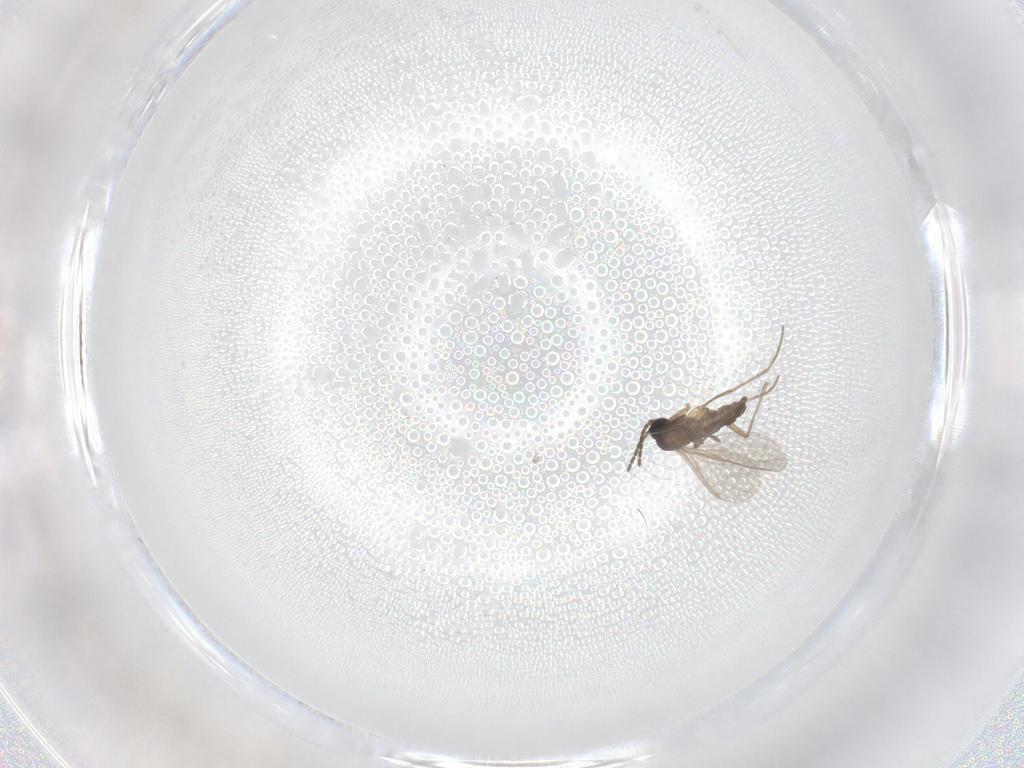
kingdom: Animalia
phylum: Arthropoda
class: Insecta
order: Diptera
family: Sciaridae
